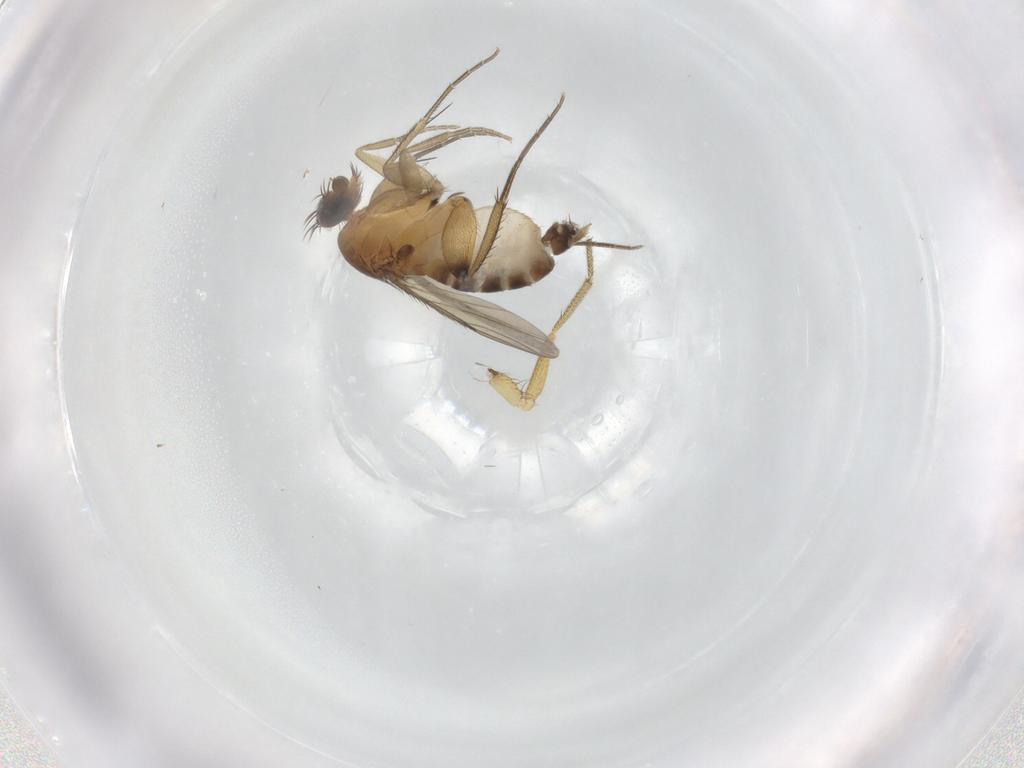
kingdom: Animalia
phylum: Arthropoda
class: Insecta
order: Diptera
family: Phoridae
